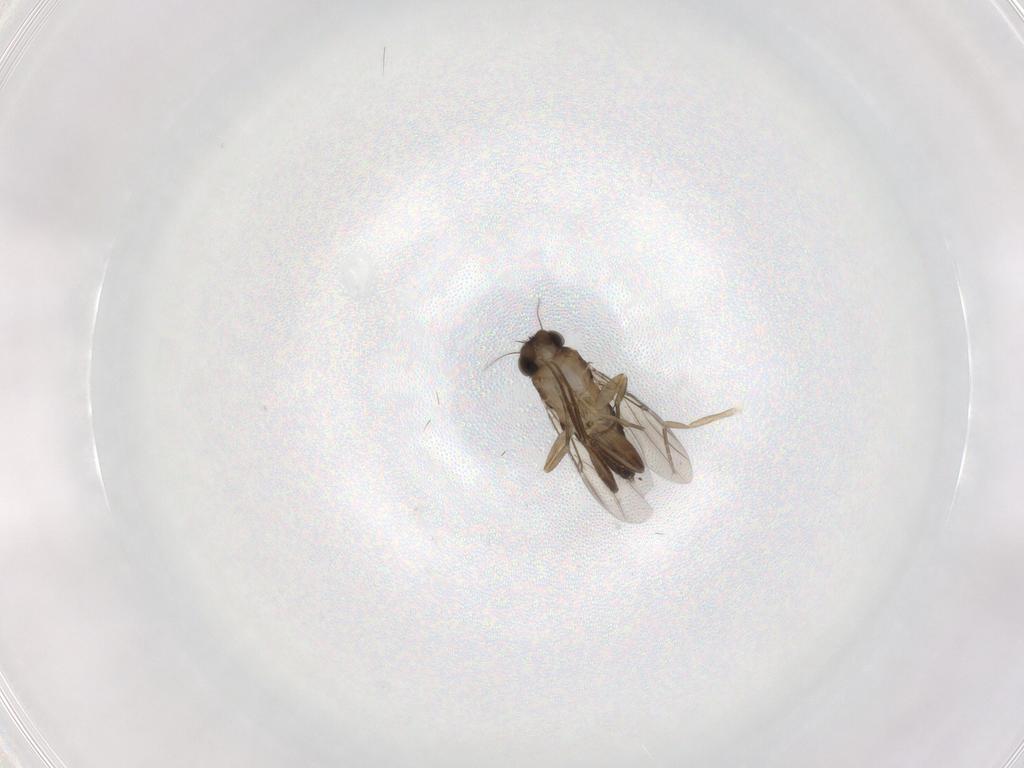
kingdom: Animalia
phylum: Arthropoda
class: Insecta
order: Diptera
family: Phoridae
